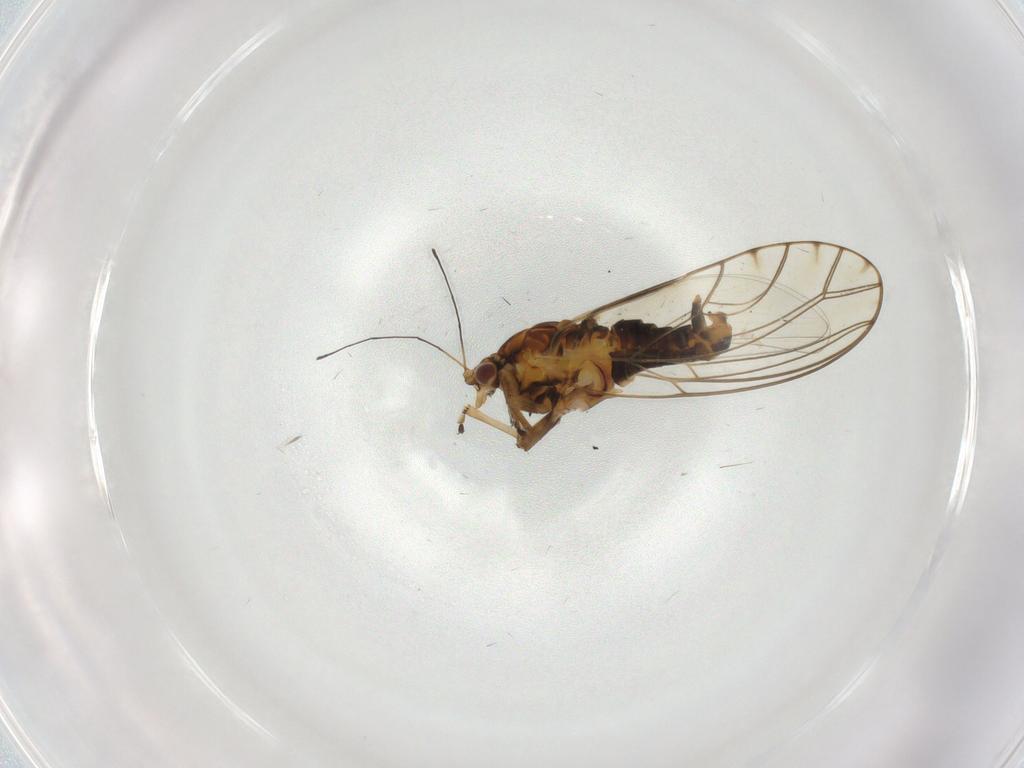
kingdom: Animalia
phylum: Arthropoda
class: Insecta
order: Hemiptera
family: Triozidae
